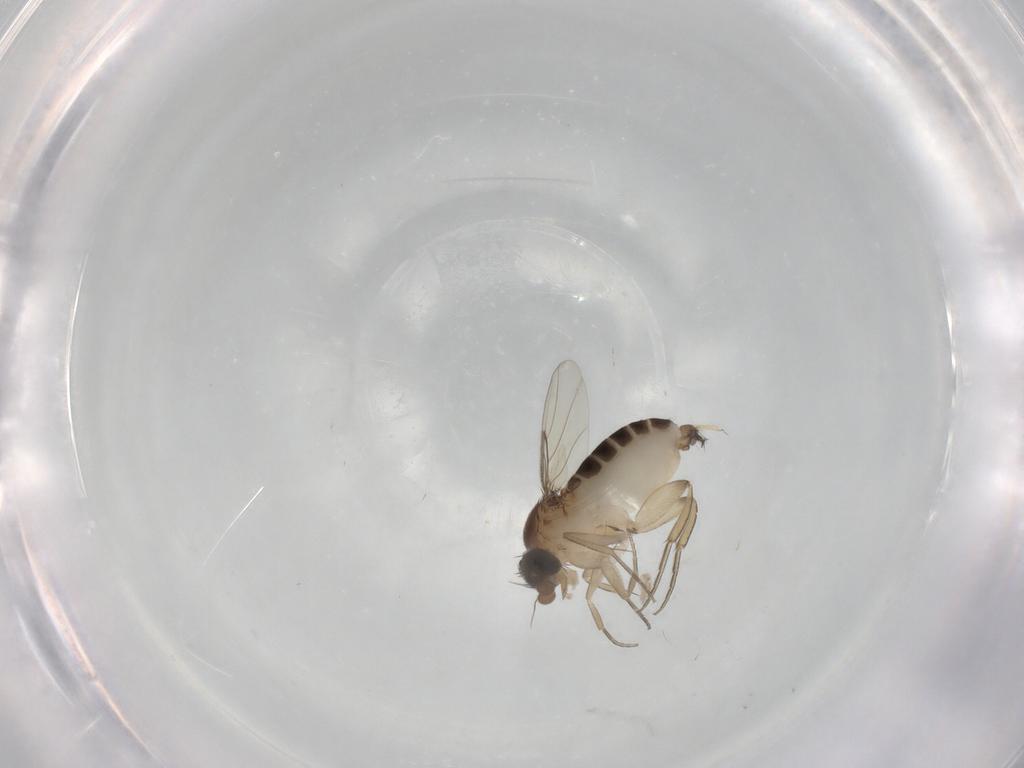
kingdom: Animalia
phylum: Arthropoda
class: Insecta
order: Diptera
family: Phoridae
